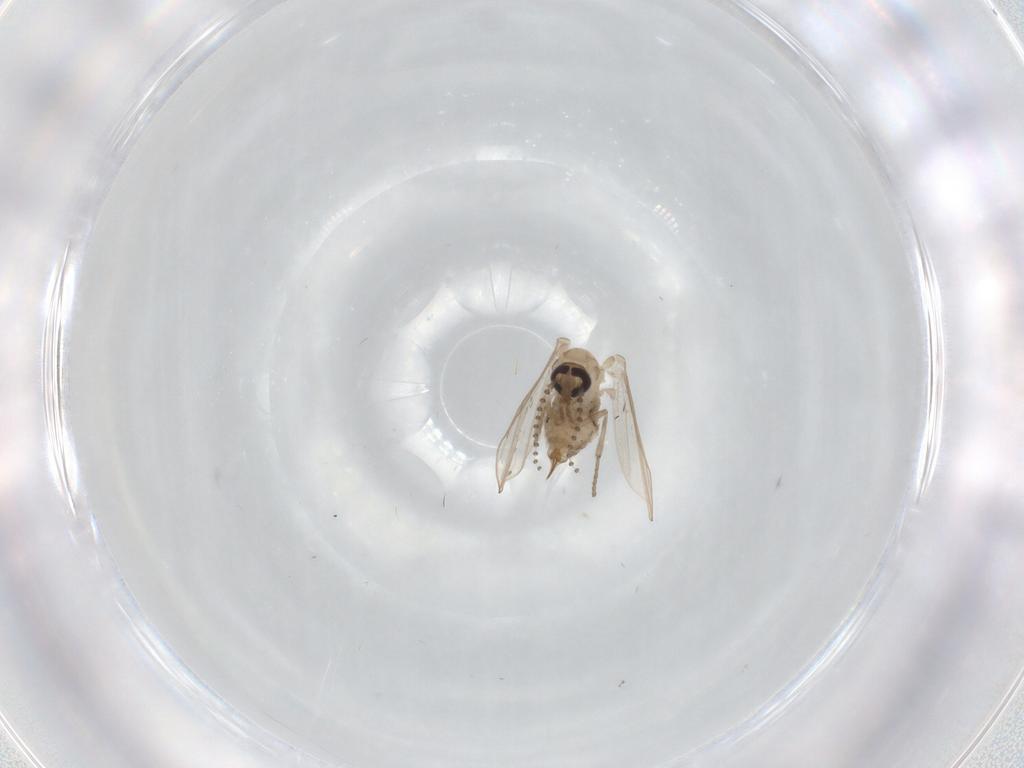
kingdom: Animalia
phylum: Arthropoda
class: Insecta
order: Diptera
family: Psychodidae
